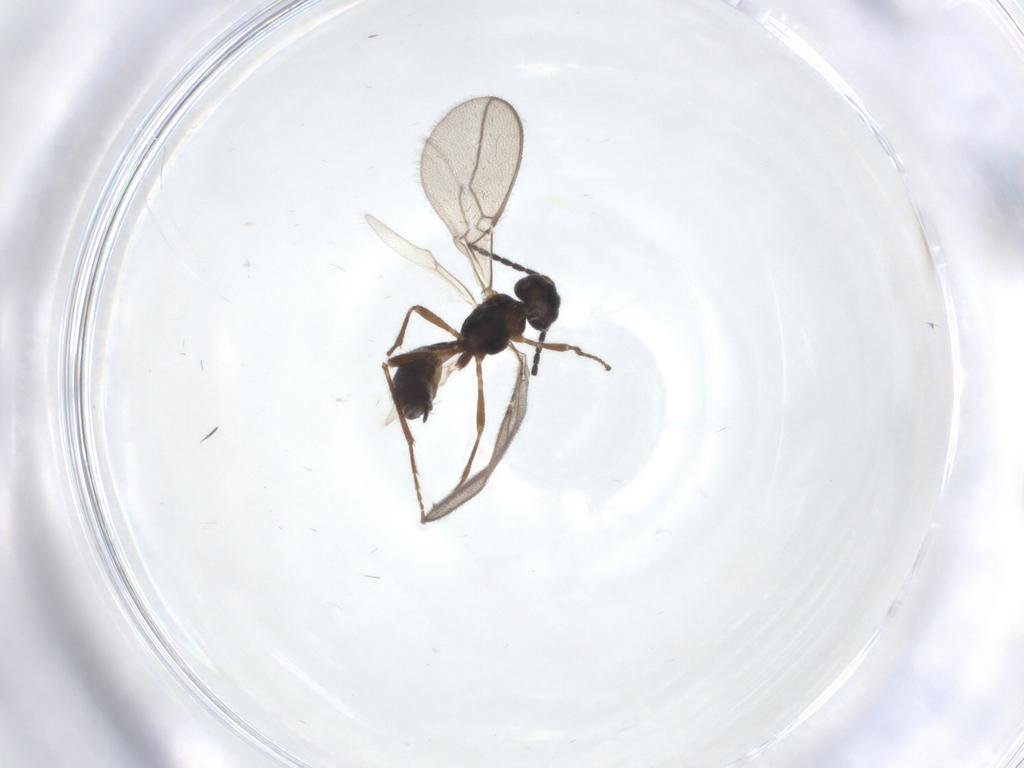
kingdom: Animalia
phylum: Arthropoda
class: Insecta
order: Hymenoptera
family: Braconidae
